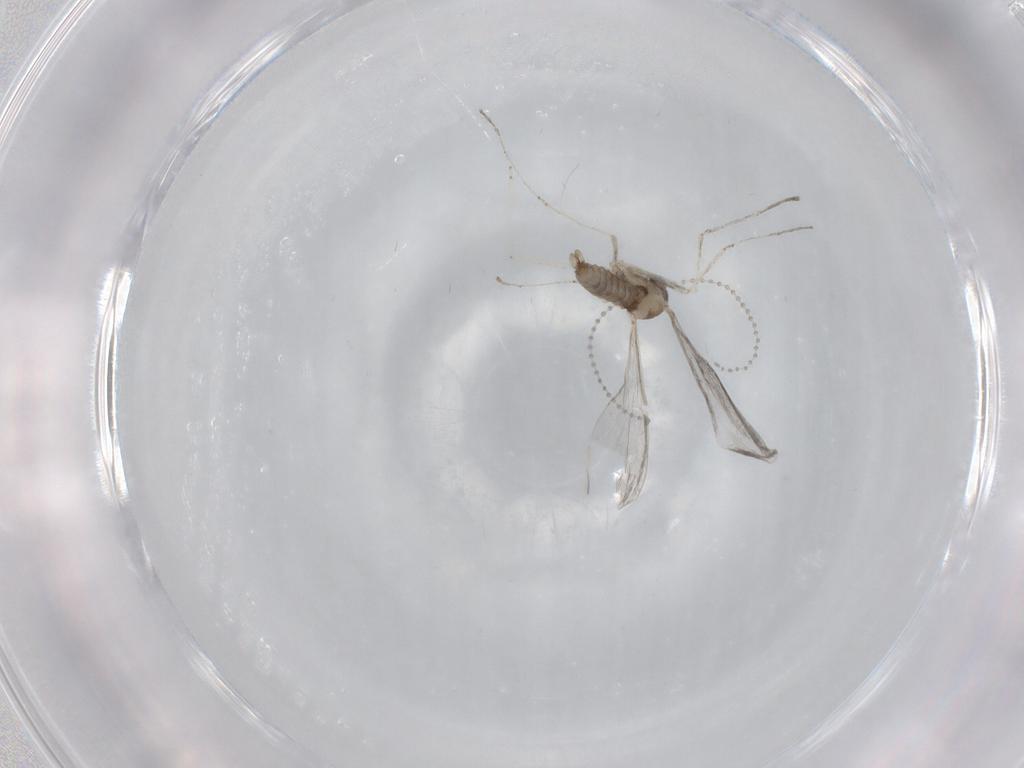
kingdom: Animalia
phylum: Arthropoda
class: Insecta
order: Diptera
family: Cecidomyiidae
